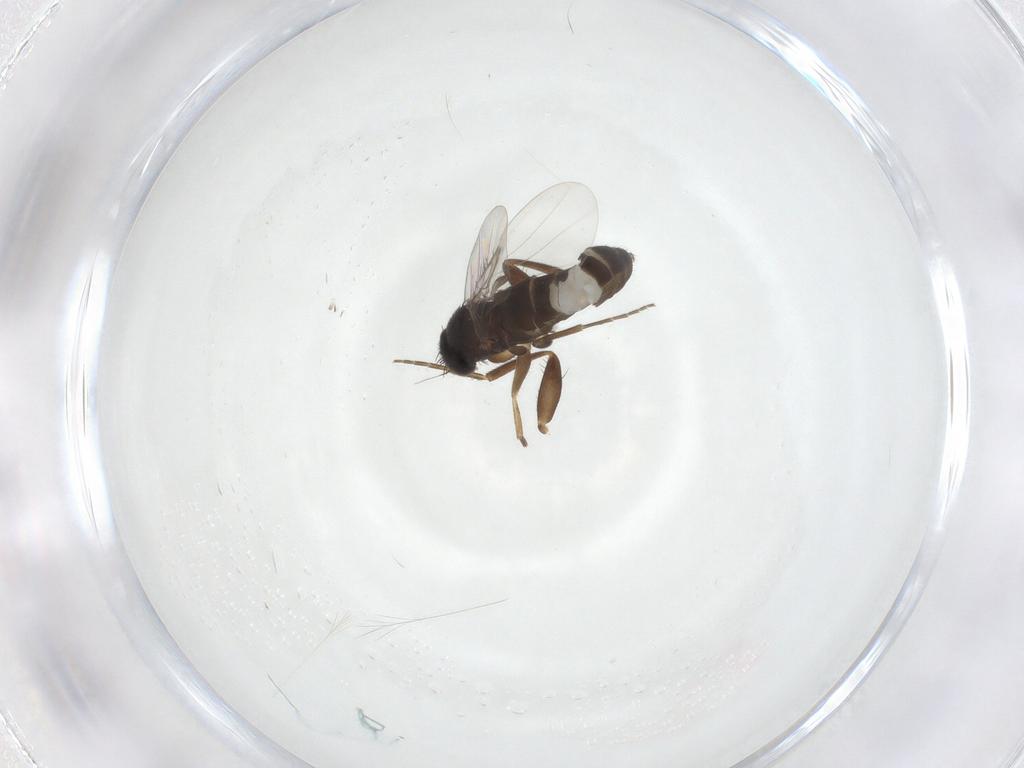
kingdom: Animalia
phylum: Arthropoda
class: Insecta
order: Diptera
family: Phoridae
